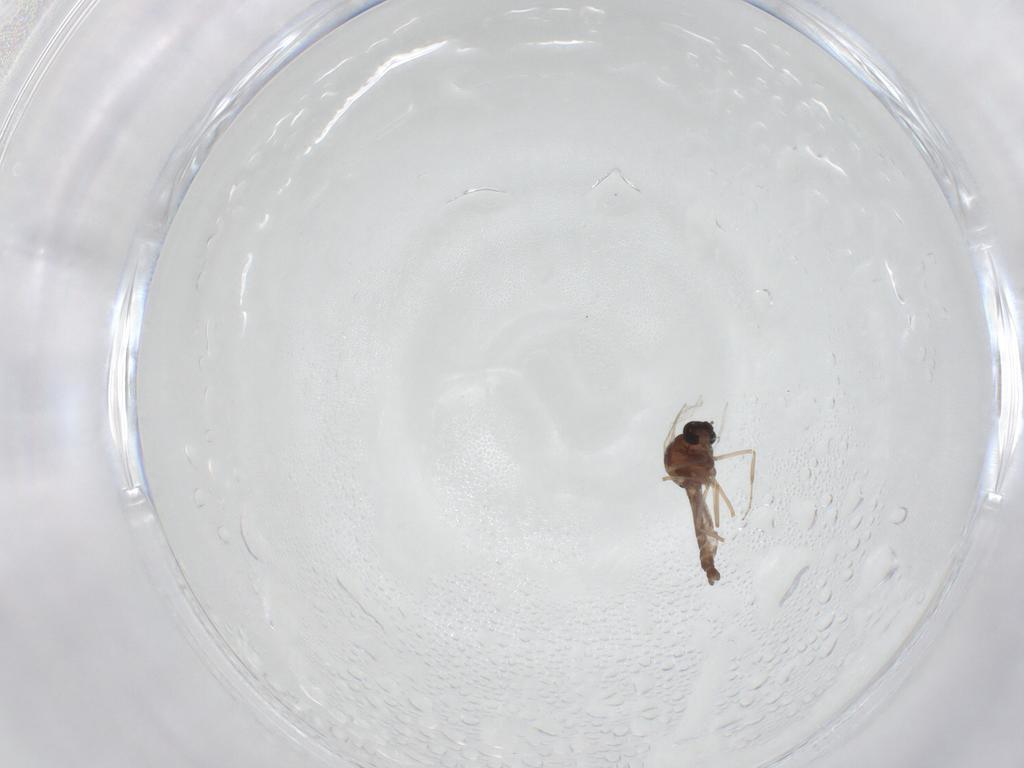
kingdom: Animalia
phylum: Arthropoda
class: Insecta
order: Diptera
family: Ceratopogonidae
